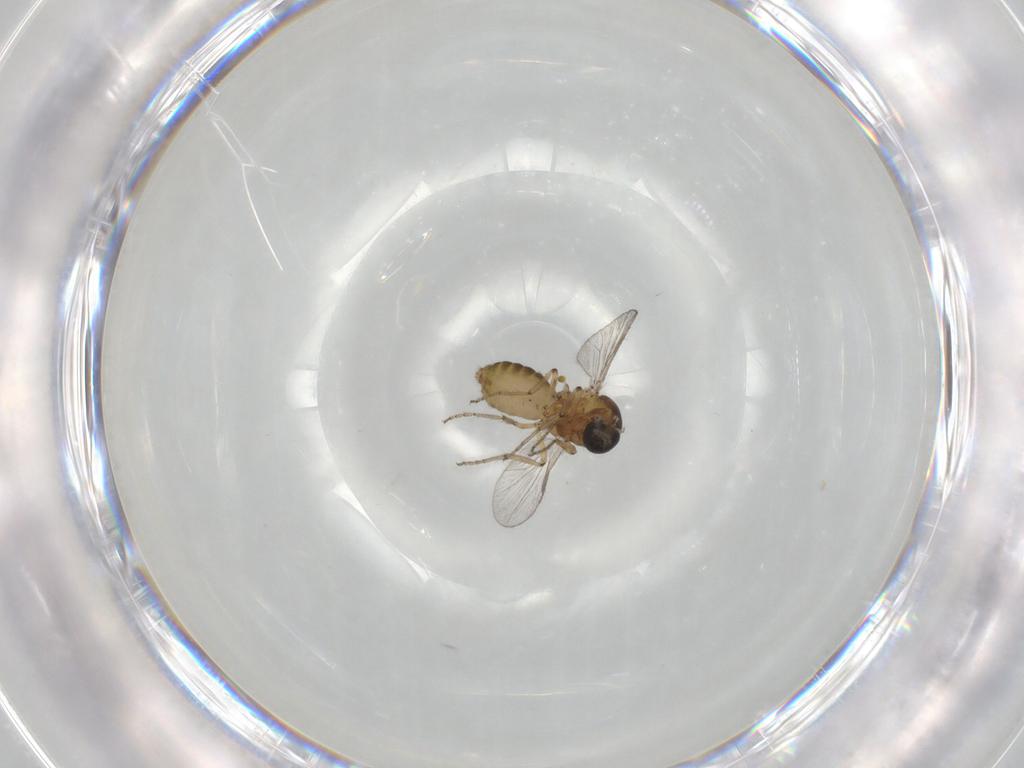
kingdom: Animalia
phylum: Arthropoda
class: Insecta
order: Diptera
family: Ceratopogonidae
